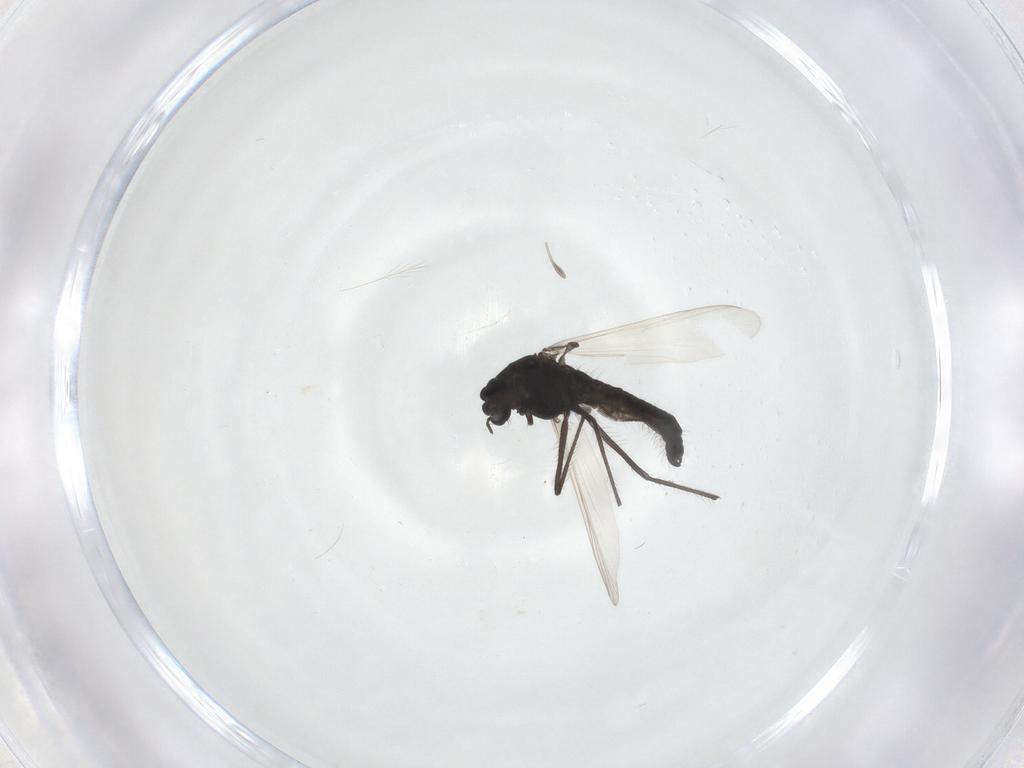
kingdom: Animalia
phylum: Arthropoda
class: Insecta
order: Diptera
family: Chironomidae
